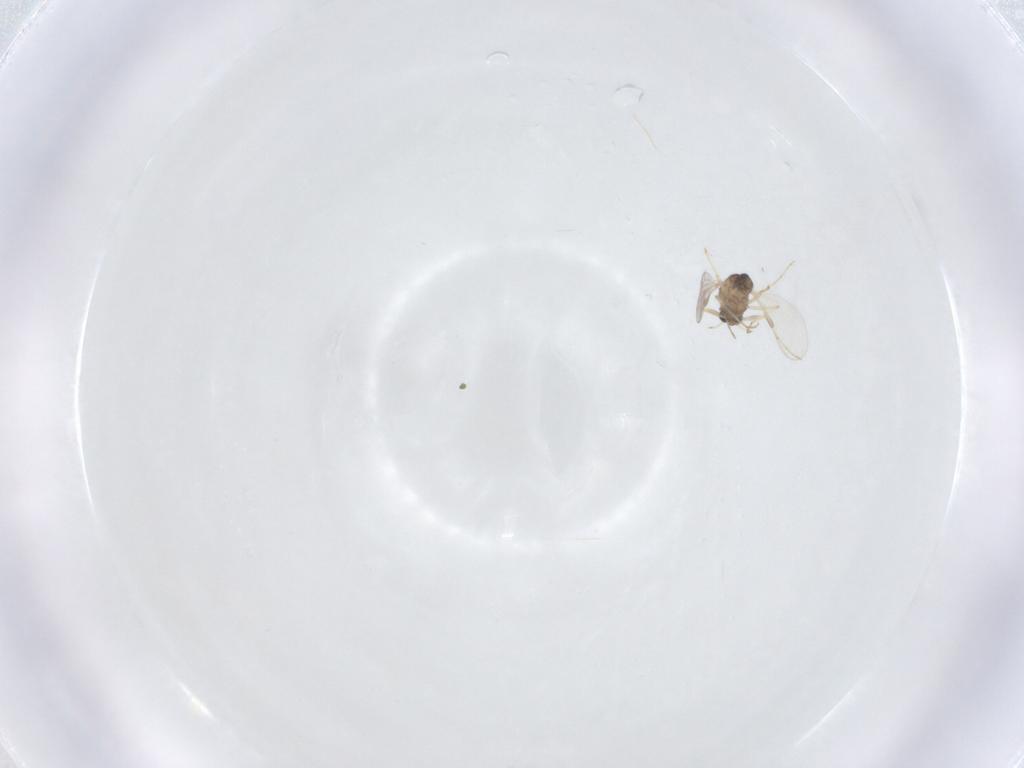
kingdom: Animalia
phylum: Arthropoda
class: Insecta
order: Diptera
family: Chironomidae
